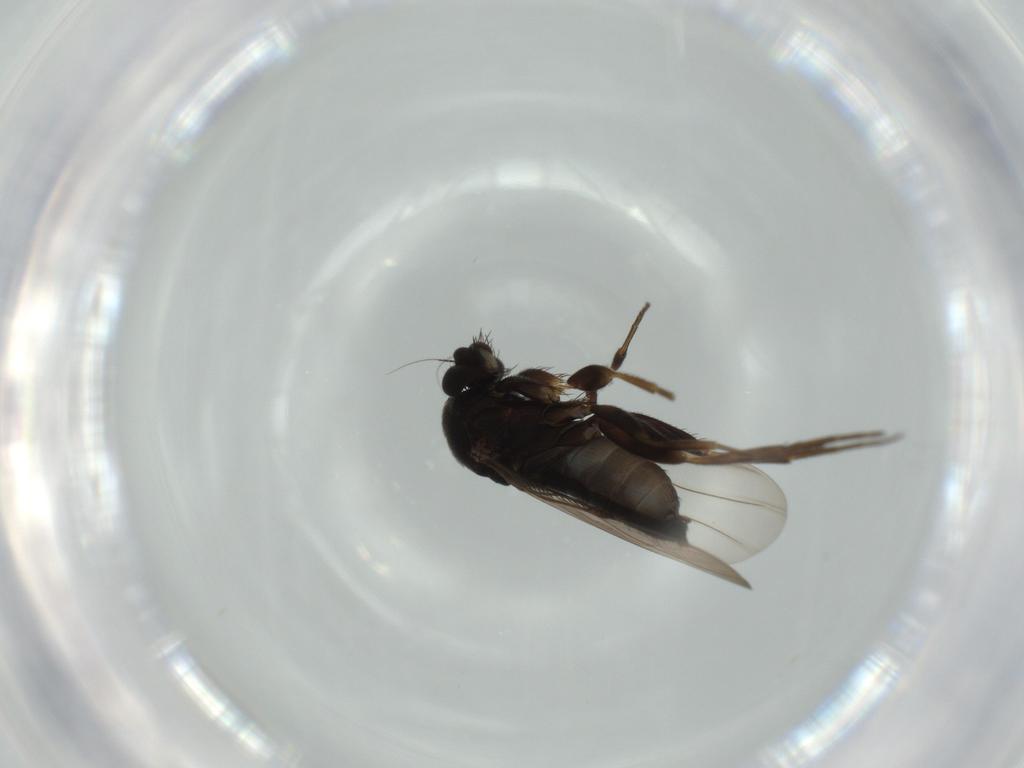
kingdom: Animalia
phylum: Arthropoda
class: Insecta
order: Diptera
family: Phoridae
